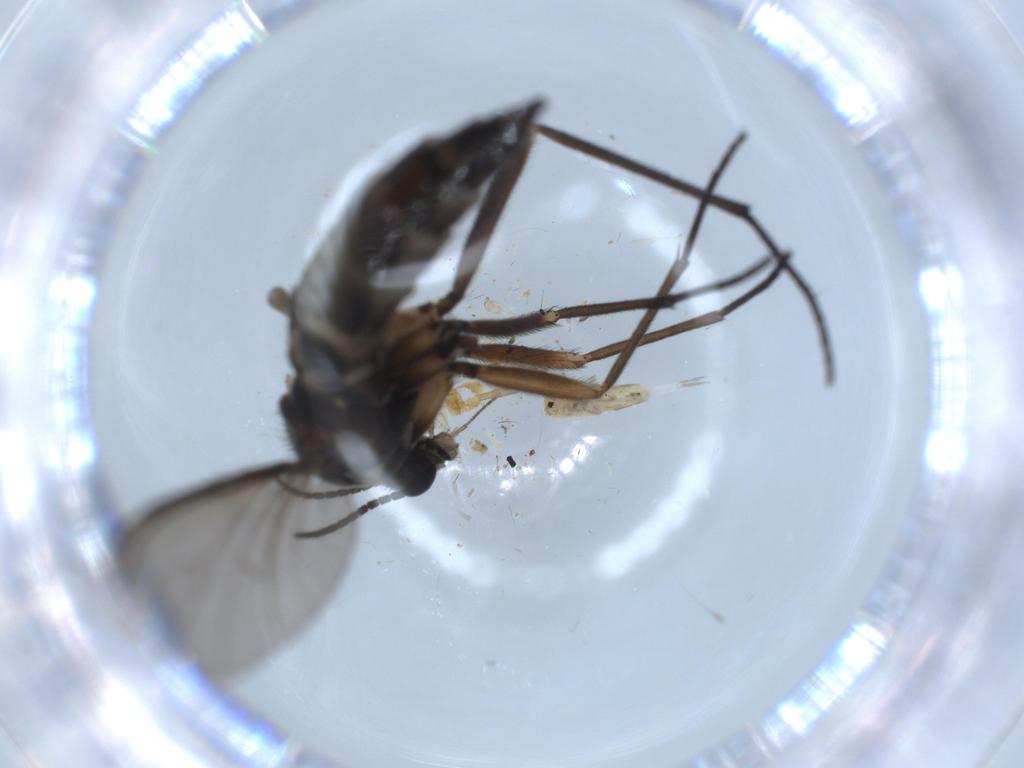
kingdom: Animalia
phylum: Arthropoda
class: Insecta
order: Diptera
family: Sciaridae
